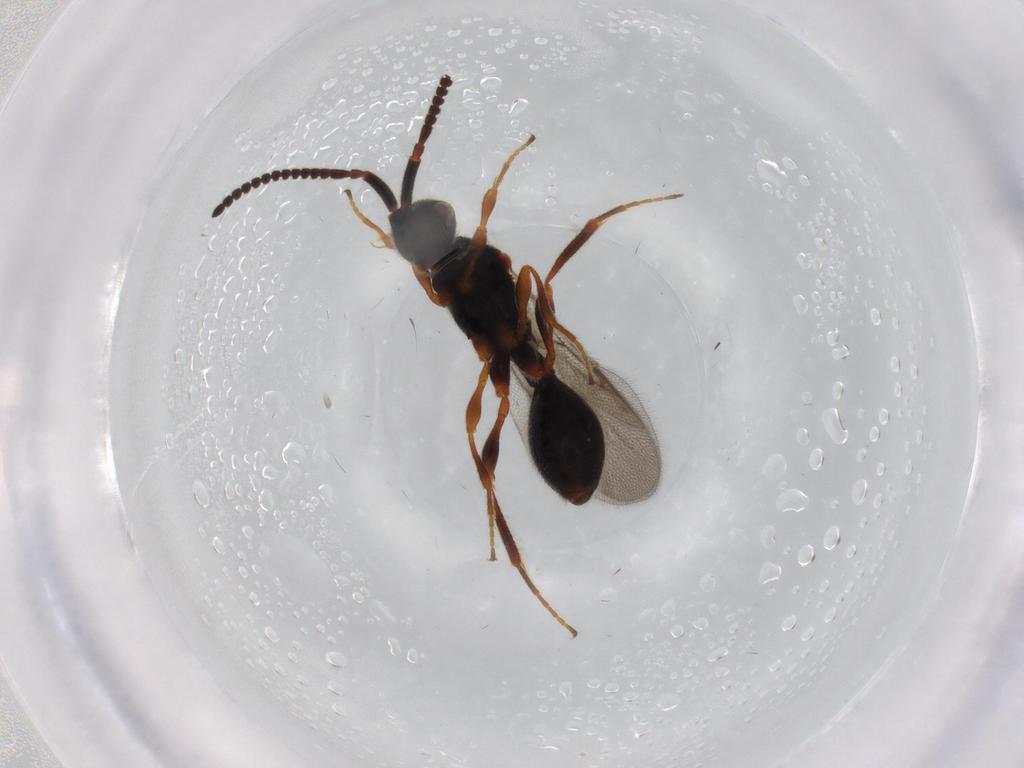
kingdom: Animalia
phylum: Arthropoda
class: Insecta
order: Hymenoptera
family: Diapriidae
